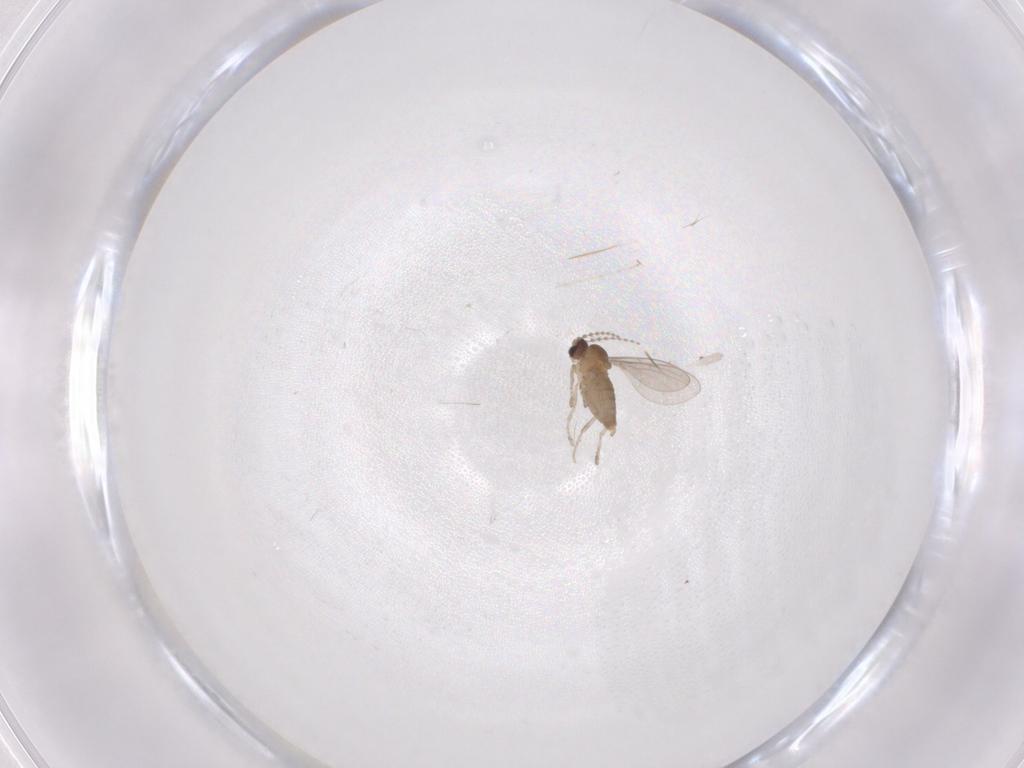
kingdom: Animalia
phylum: Arthropoda
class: Insecta
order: Diptera
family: Cecidomyiidae
